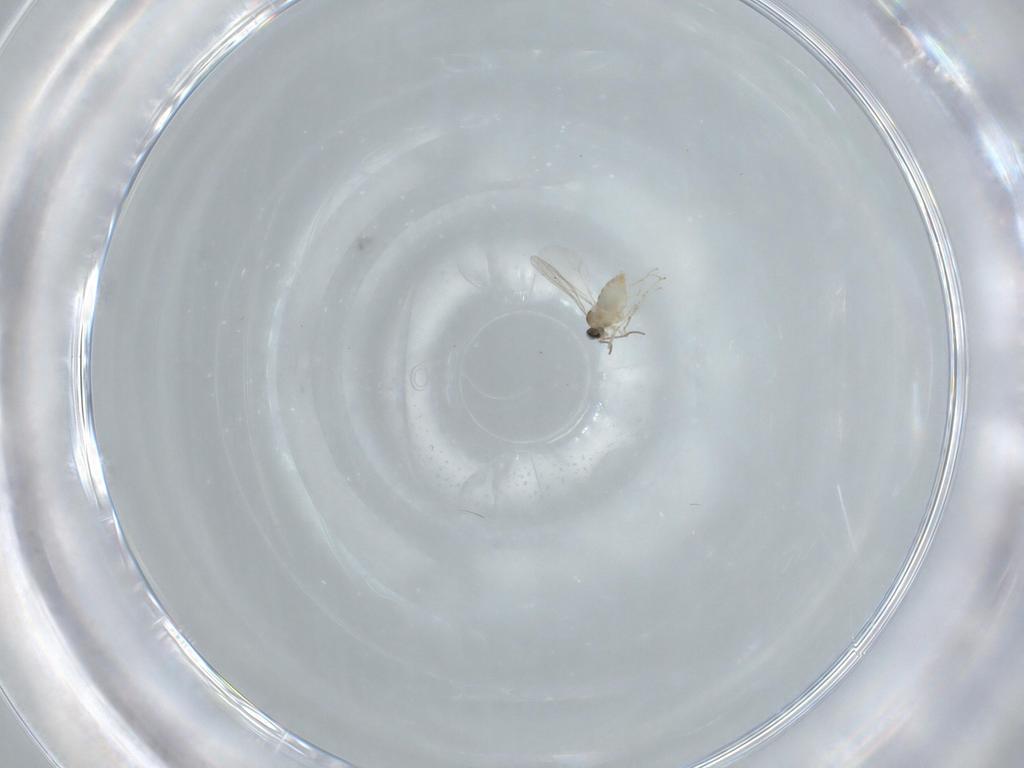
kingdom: Animalia
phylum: Arthropoda
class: Insecta
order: Diptera
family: Cecidomyiidae
